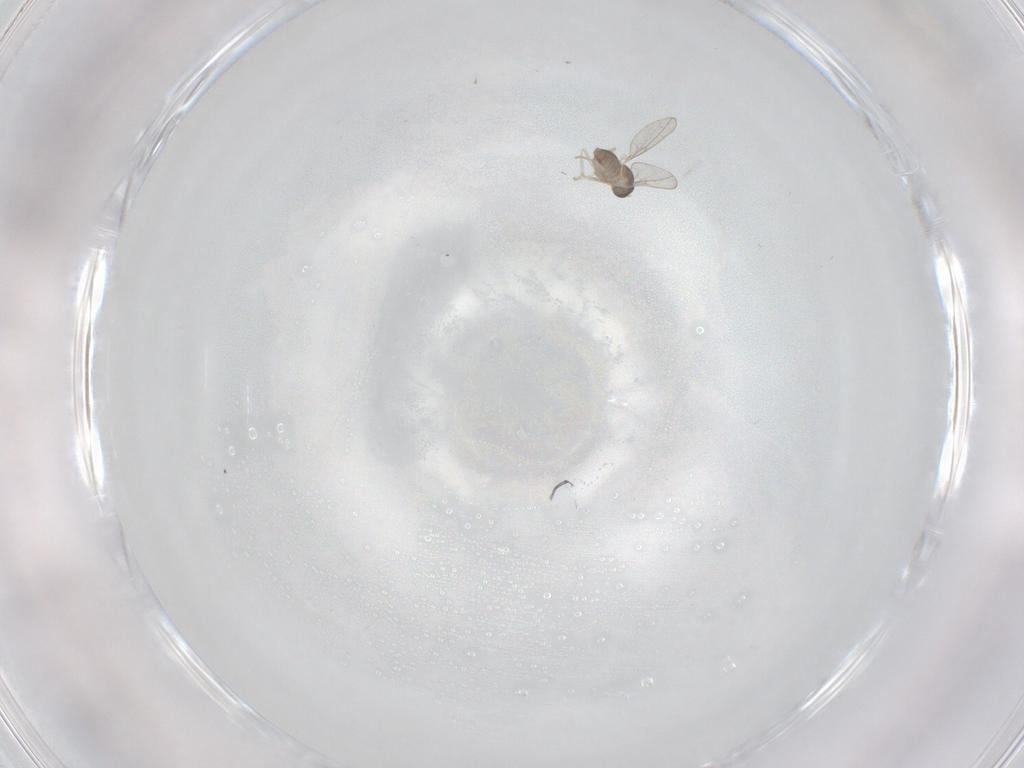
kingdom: Animalia
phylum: Arthropoda
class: Insecta
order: Diptera
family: Cecidomyiidae
